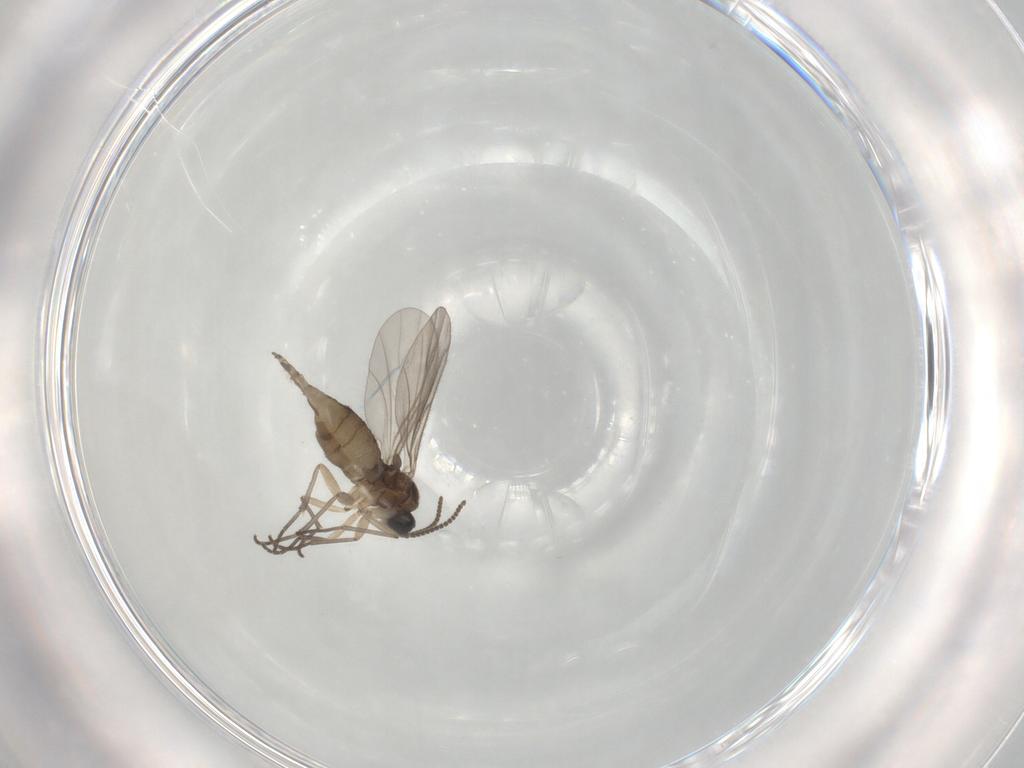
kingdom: Animalia
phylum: Arthropoda
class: Insecta
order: Diptera
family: Sciaridae
